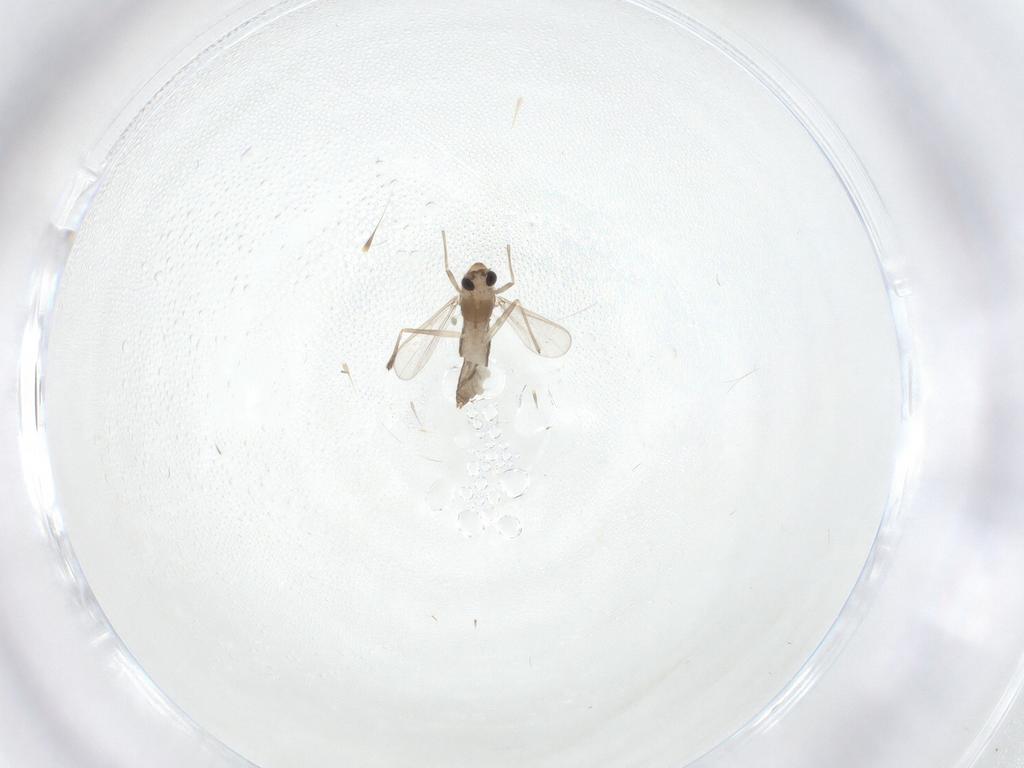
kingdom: Animalia
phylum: Arthropoda
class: Insecta
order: Diptera
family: Chironomidae
